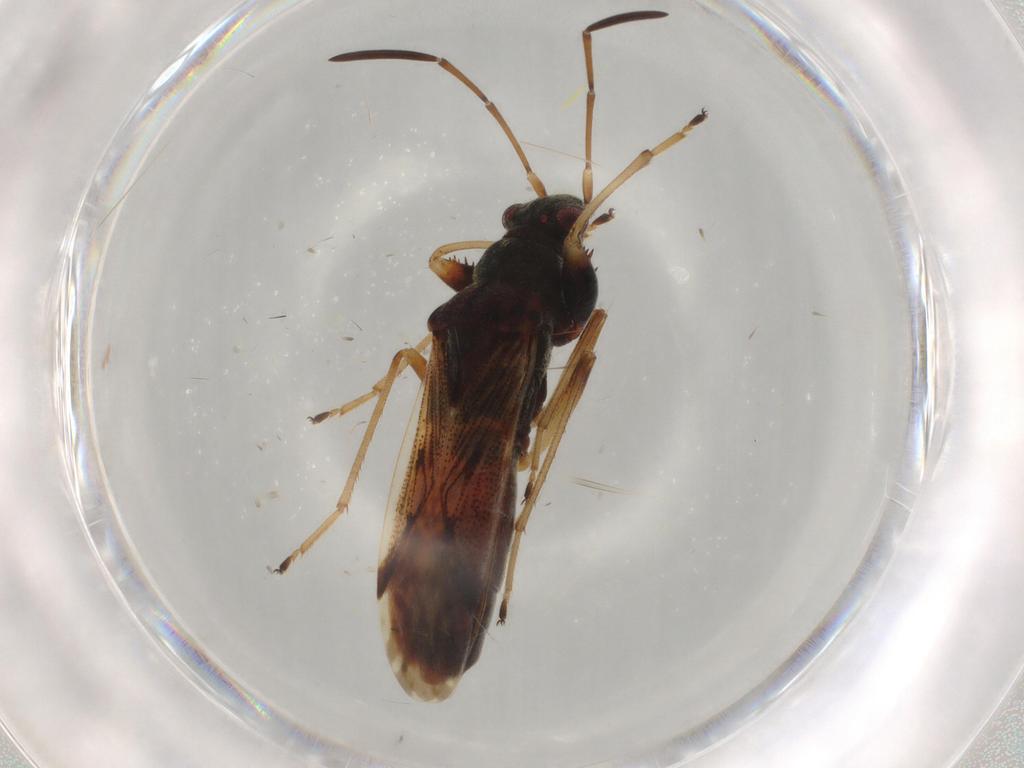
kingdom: Animalia
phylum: Arthropoda
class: Insecta
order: Hemiptera
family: Rhyparochromidae
